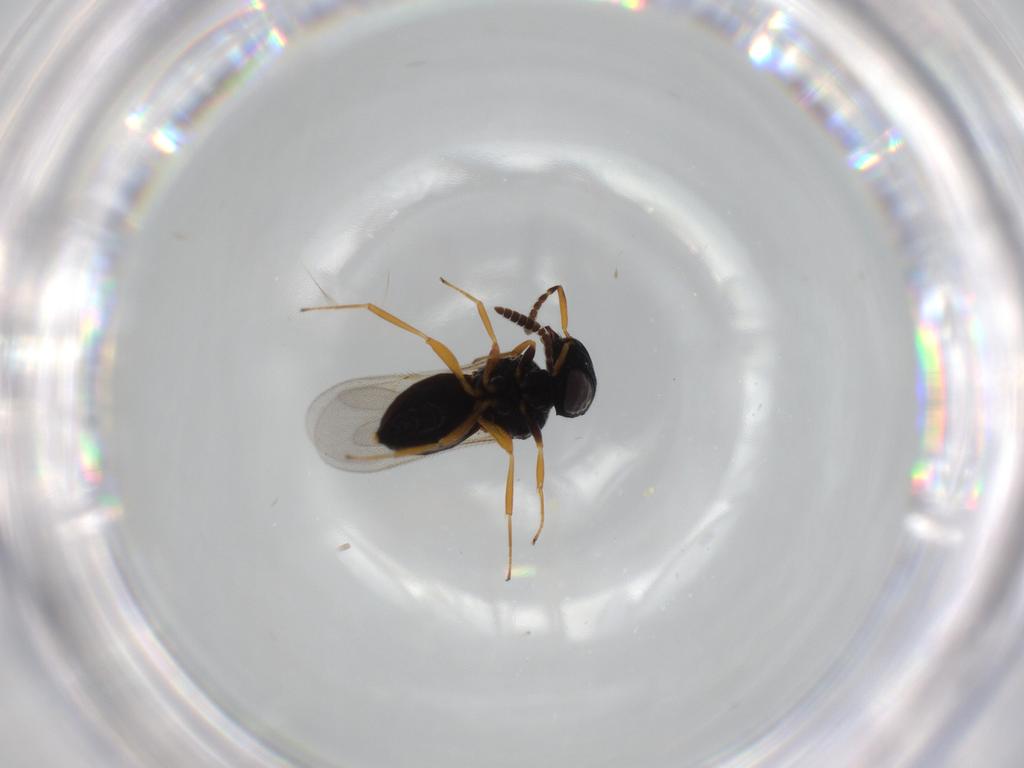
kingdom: Animalia
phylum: Arthropoda
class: Insecta
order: Hymenoptera
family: Scelionidae
